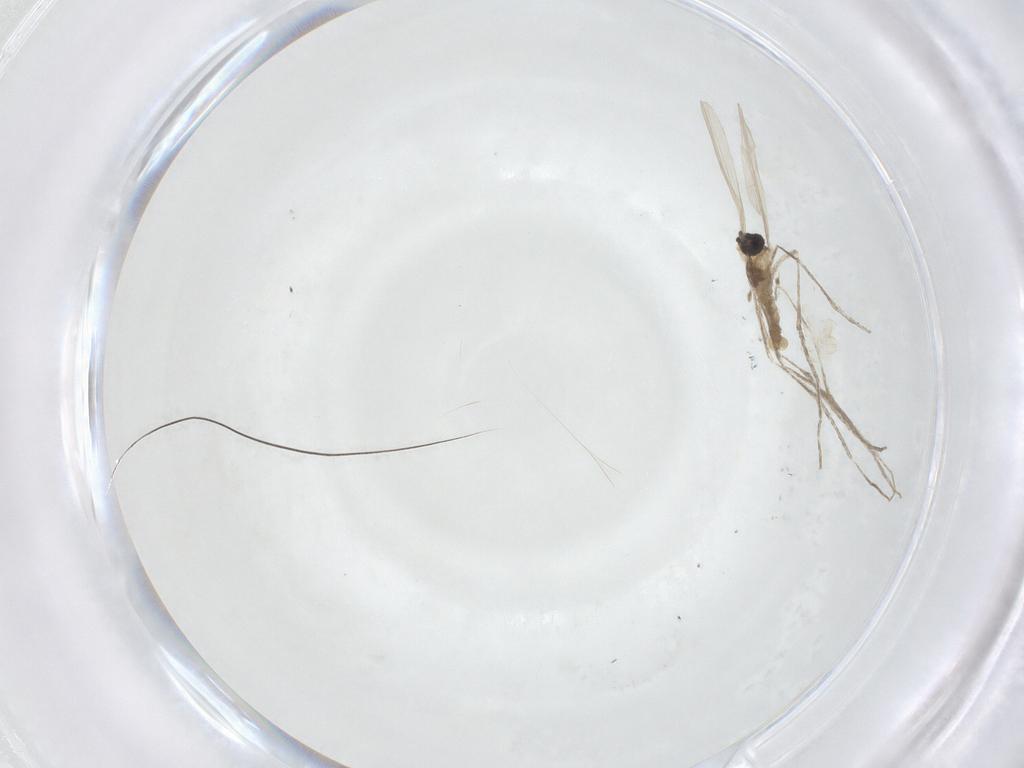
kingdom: Animalia
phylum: Arthropoda
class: Insecta
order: Diptera
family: Cecidomyiidae
